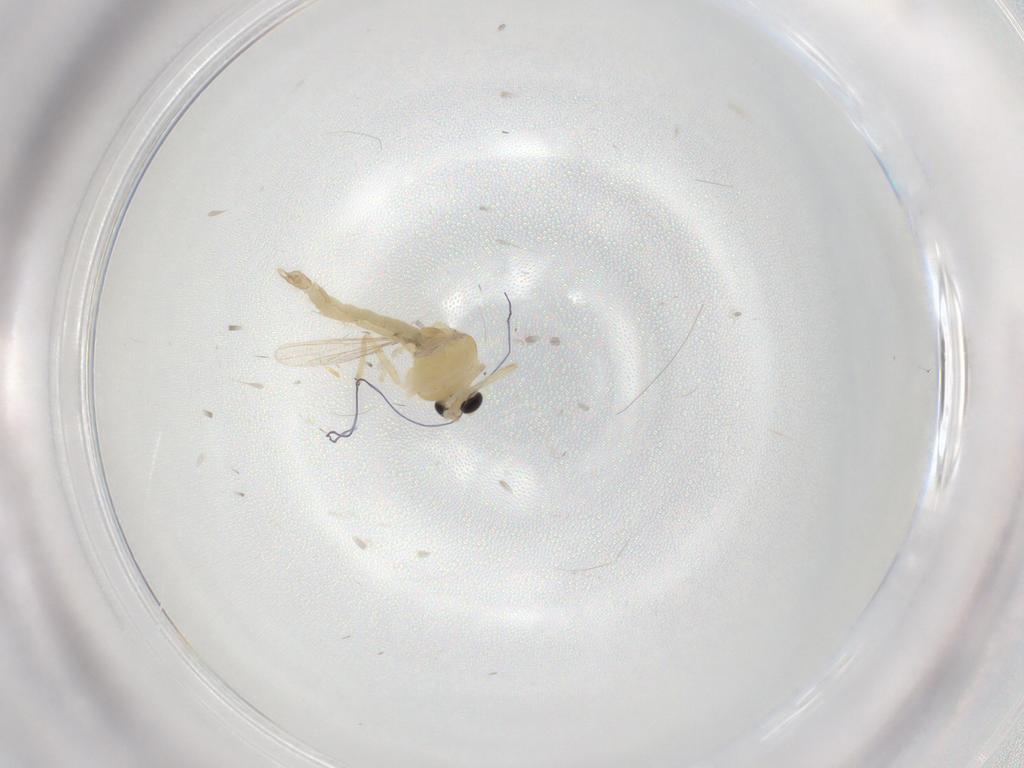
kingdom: Animalia
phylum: Arthropoda
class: Insecta
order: Diptera
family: Chironomidae
